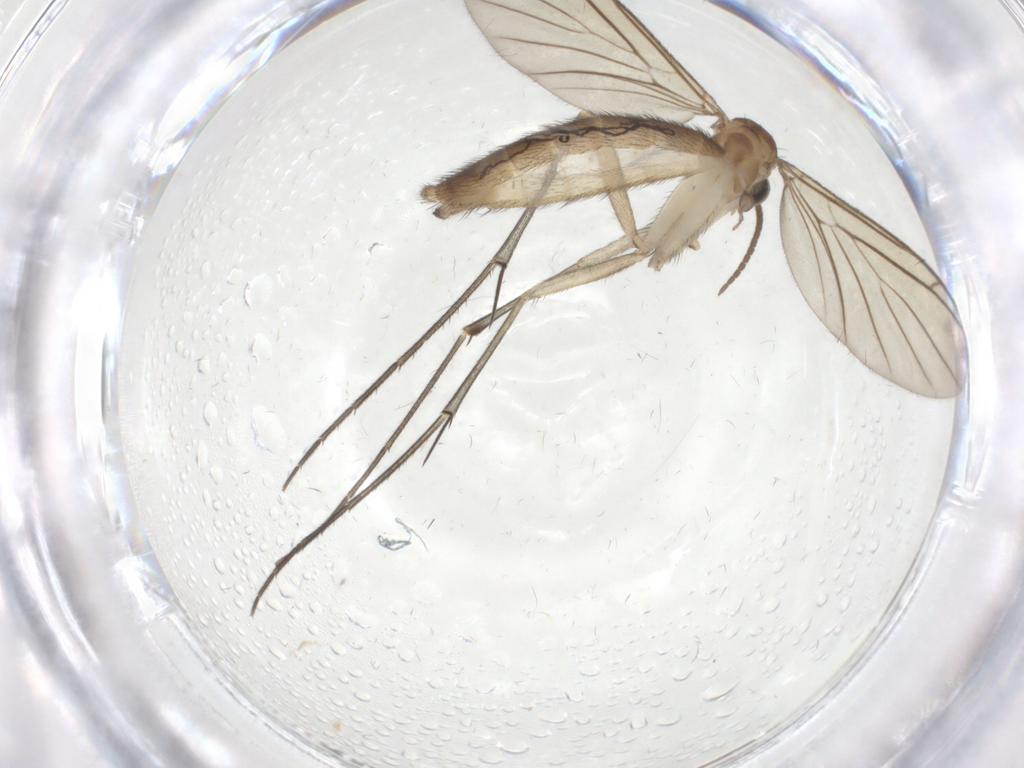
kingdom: Animalia
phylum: Arthropoda
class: Insecta
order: Diptera
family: Keroplatidae
